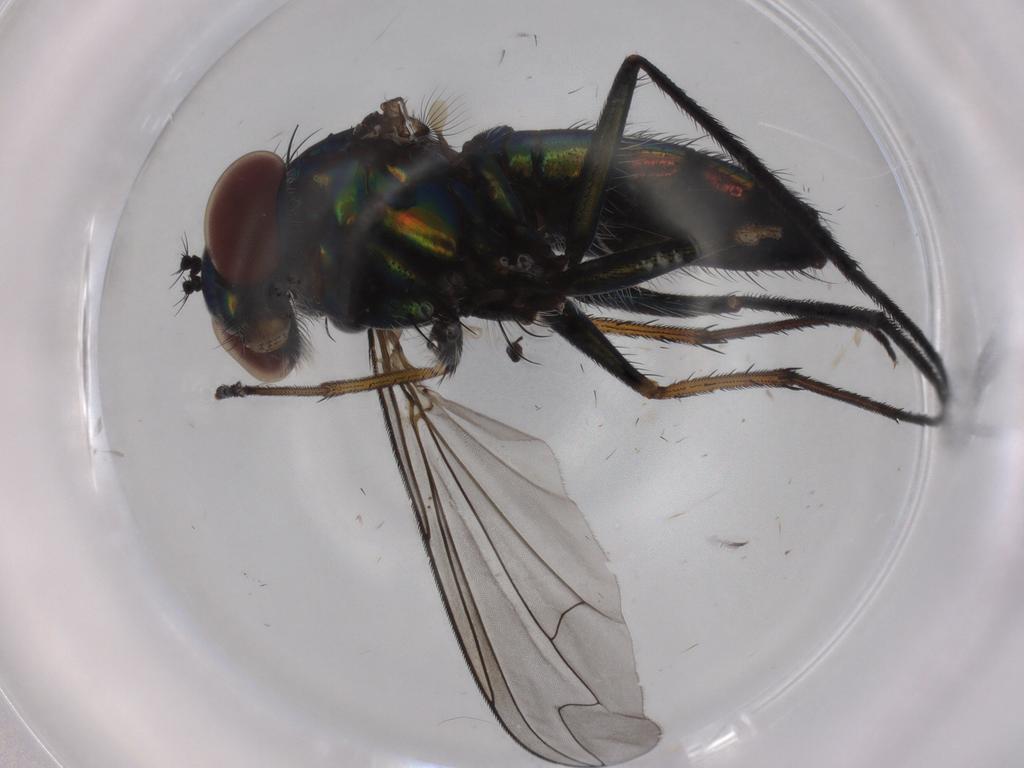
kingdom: Animalia
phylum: Arthropoda
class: Insecta
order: Diptera
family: Dolichopodidae
